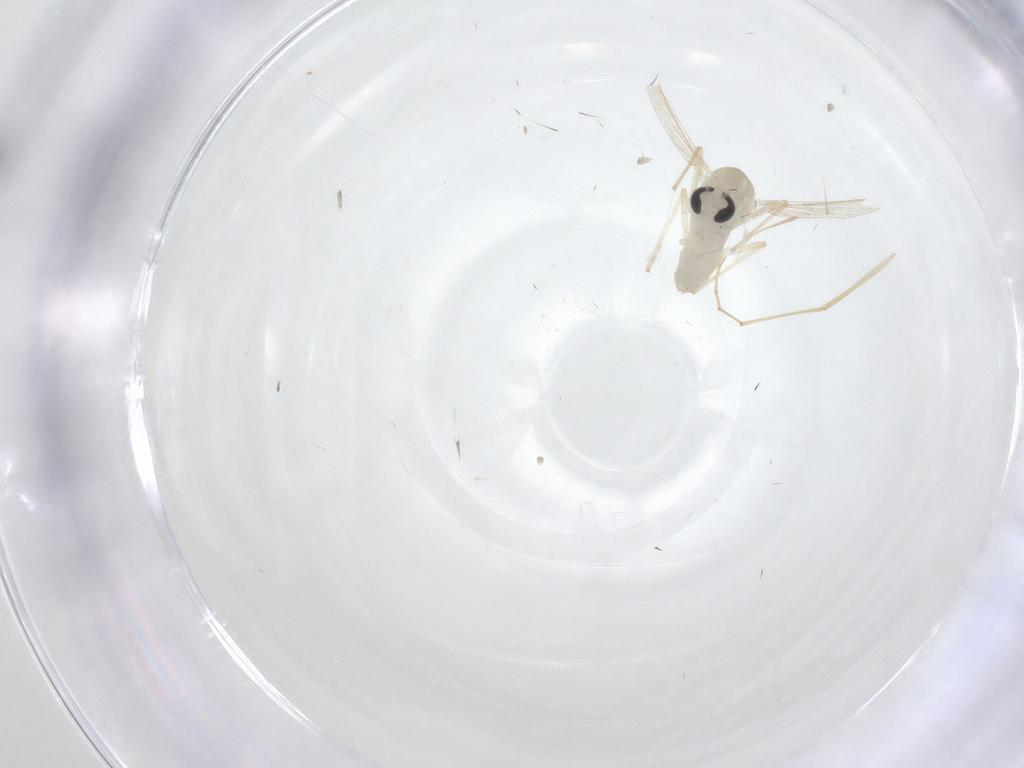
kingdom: Animalia
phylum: Arthropoda
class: Insecta
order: Diptera
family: Chironomidae
